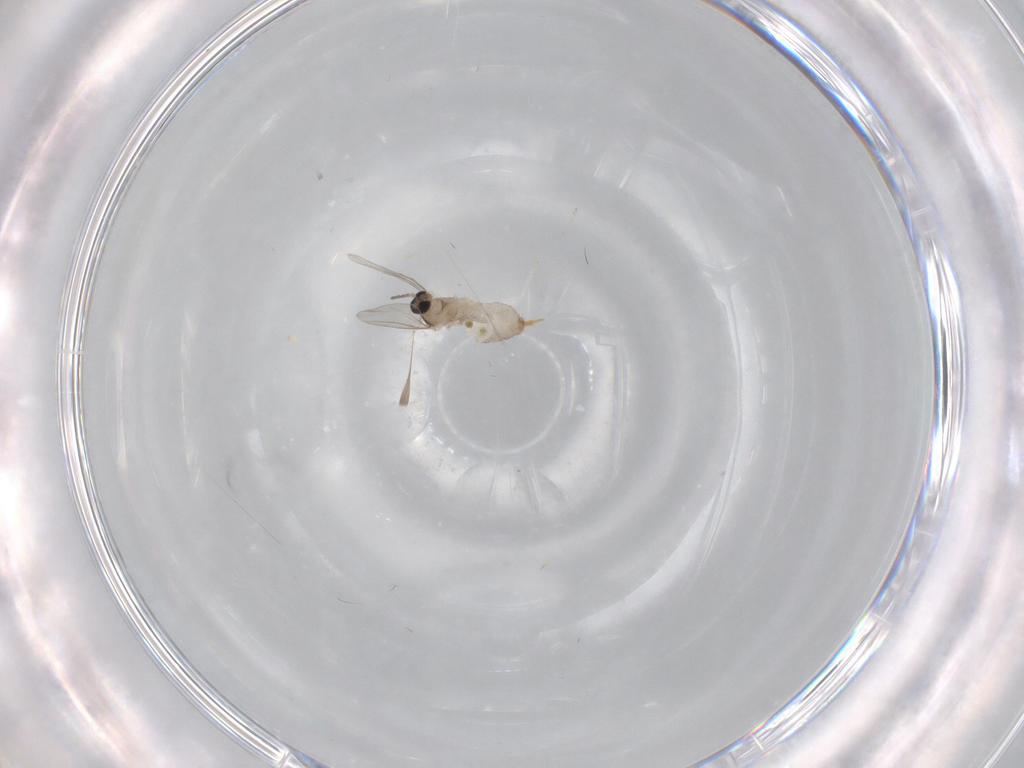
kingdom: Animalia
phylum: Arthropoda
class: Insecta
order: Diptera
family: Cecidomyiidae
